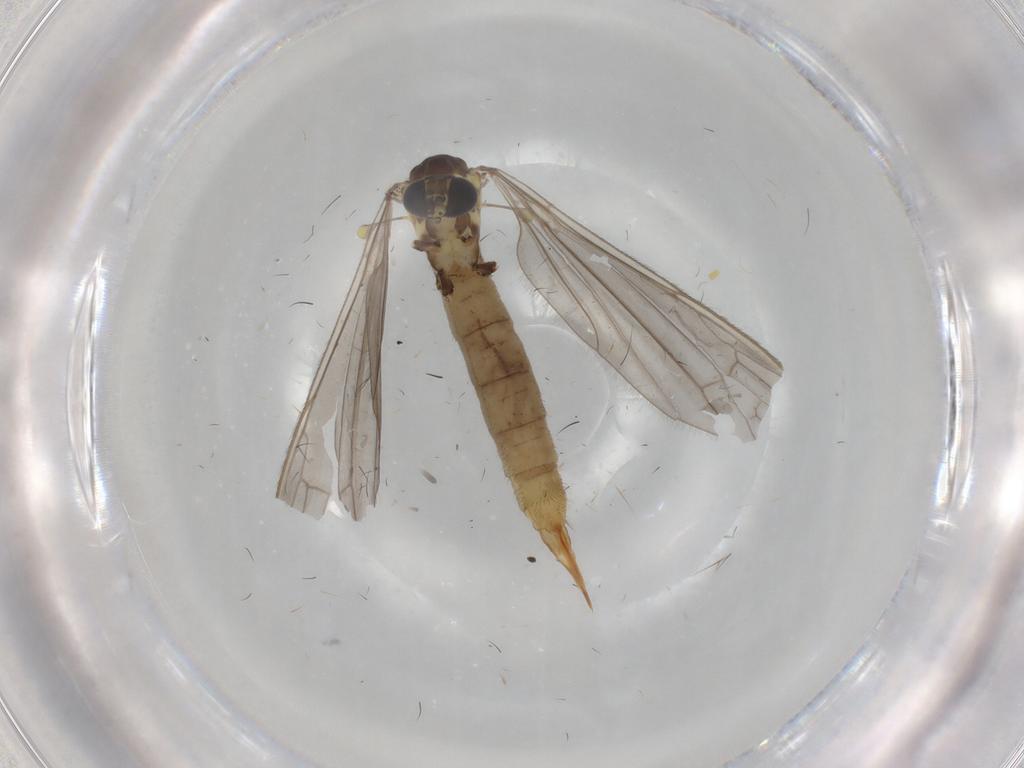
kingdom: Animalia
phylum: Arthropoda
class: Insecta
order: Diptera
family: Limoniidae
